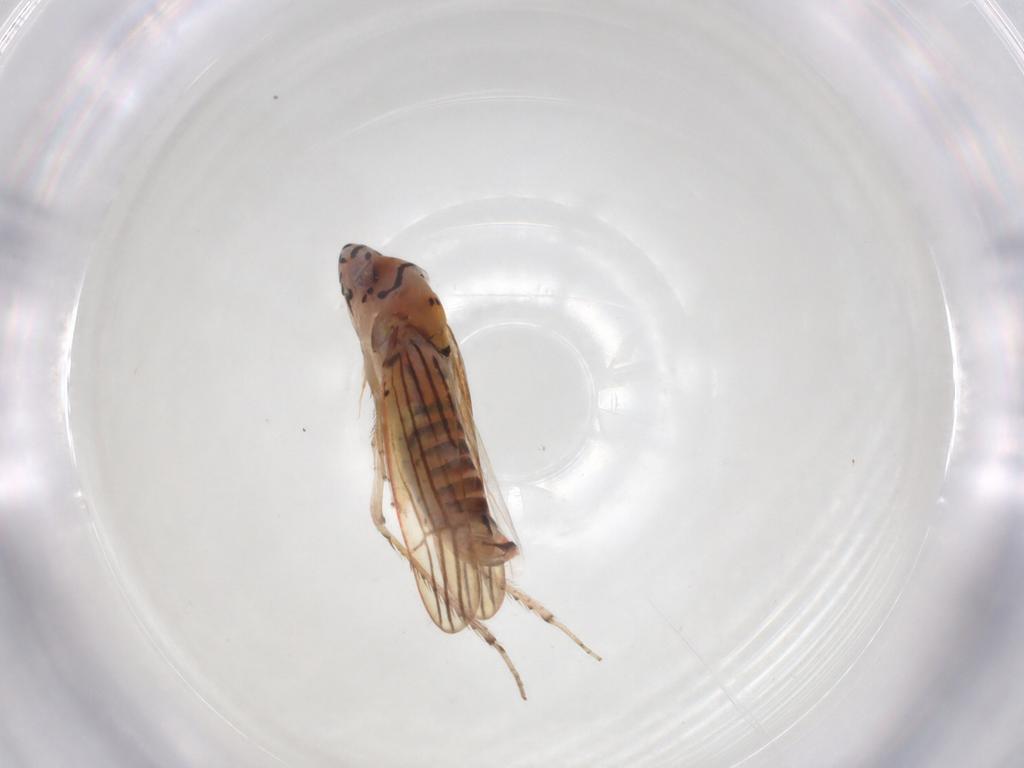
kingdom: Animalia
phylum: Arthropoda
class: Insecta
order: Hemiptera
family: Cicadellidae
